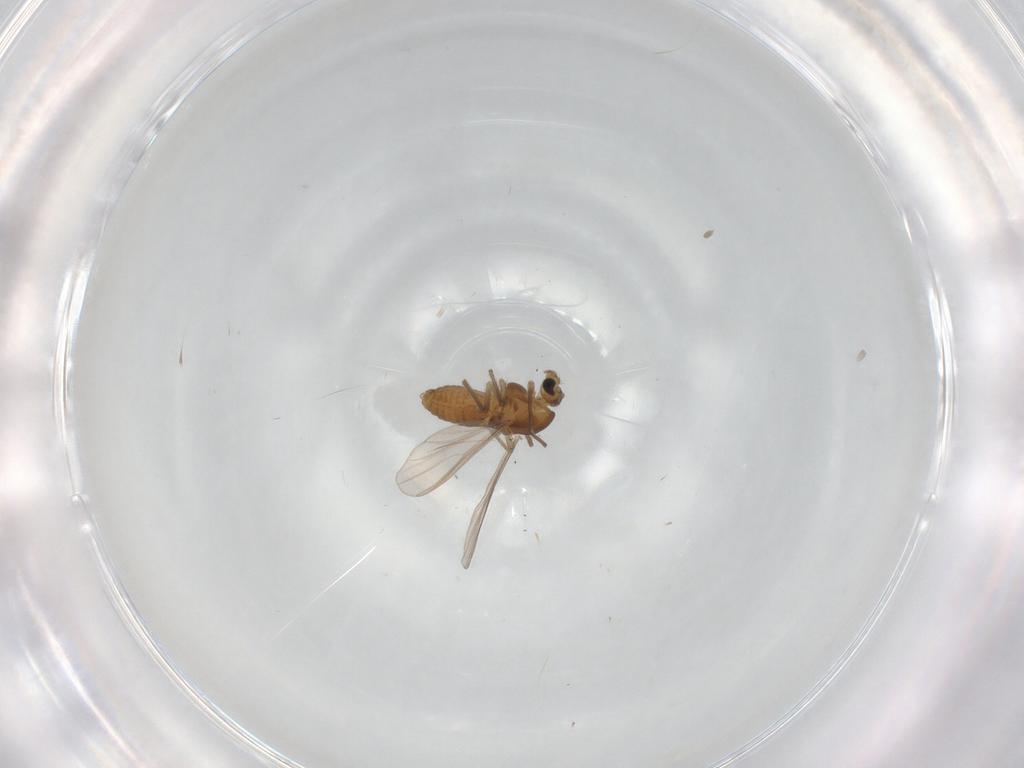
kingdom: Animalia
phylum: Arthropoda
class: Insecta
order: Diptera
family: Chironomidae
